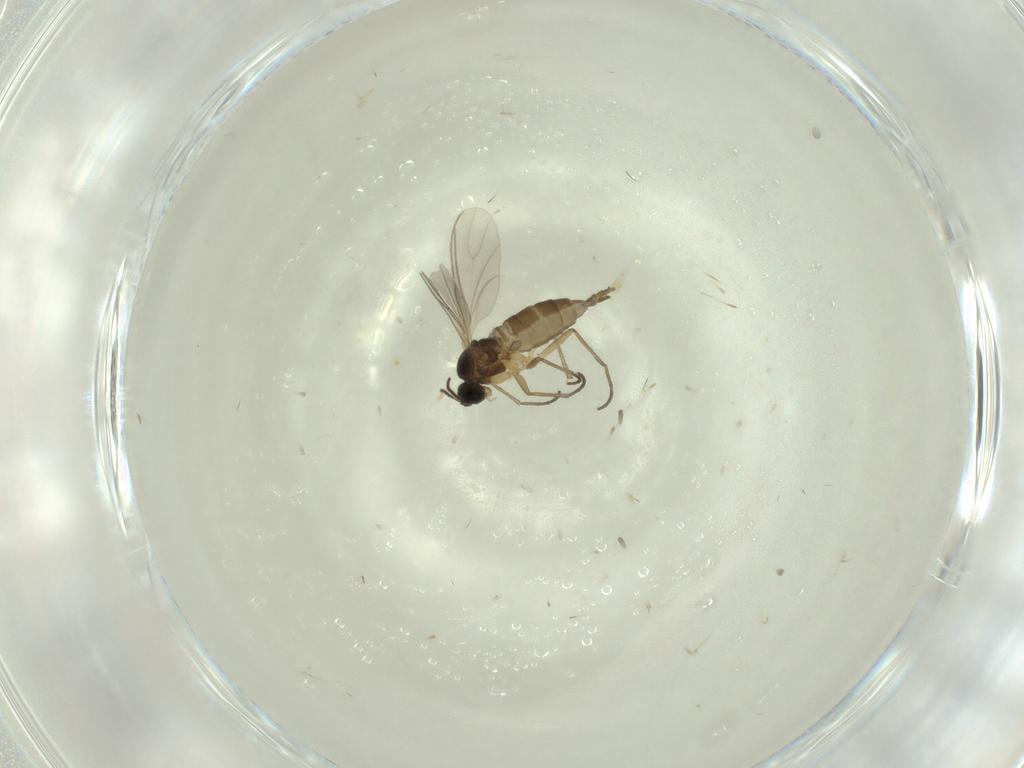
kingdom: Animalia
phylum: Arthropoda
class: Insecta
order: Diptera
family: Sciaridae
